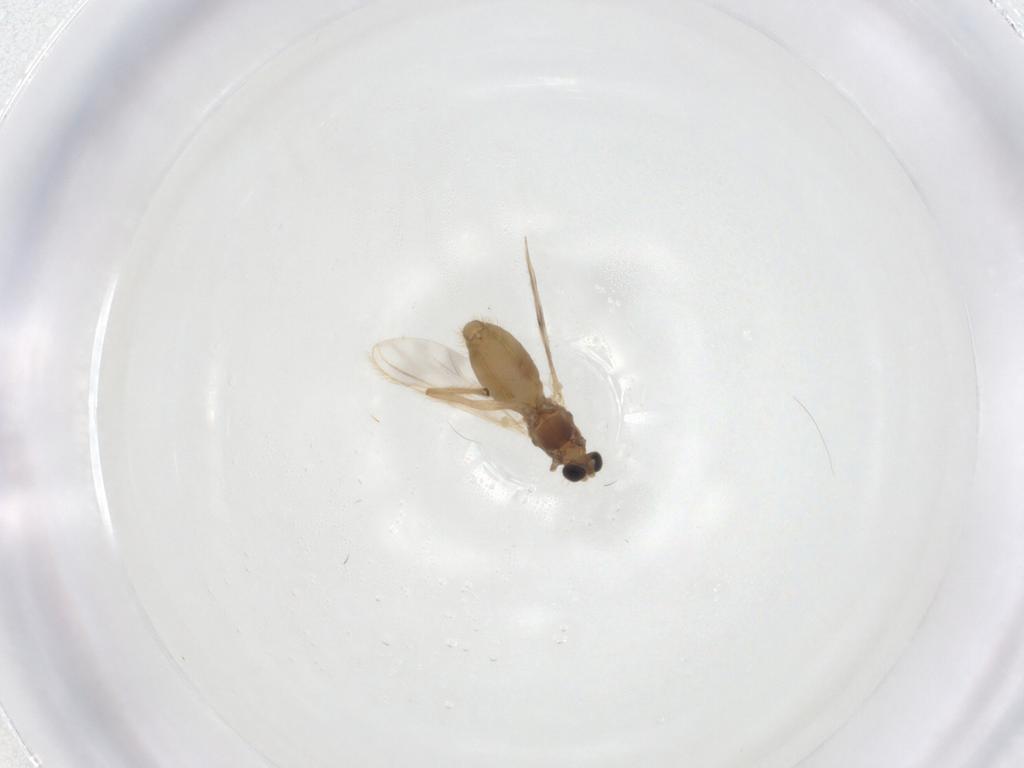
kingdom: Animalia
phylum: Arthropoda
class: Insecta
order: Diptera
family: Chironomidae
